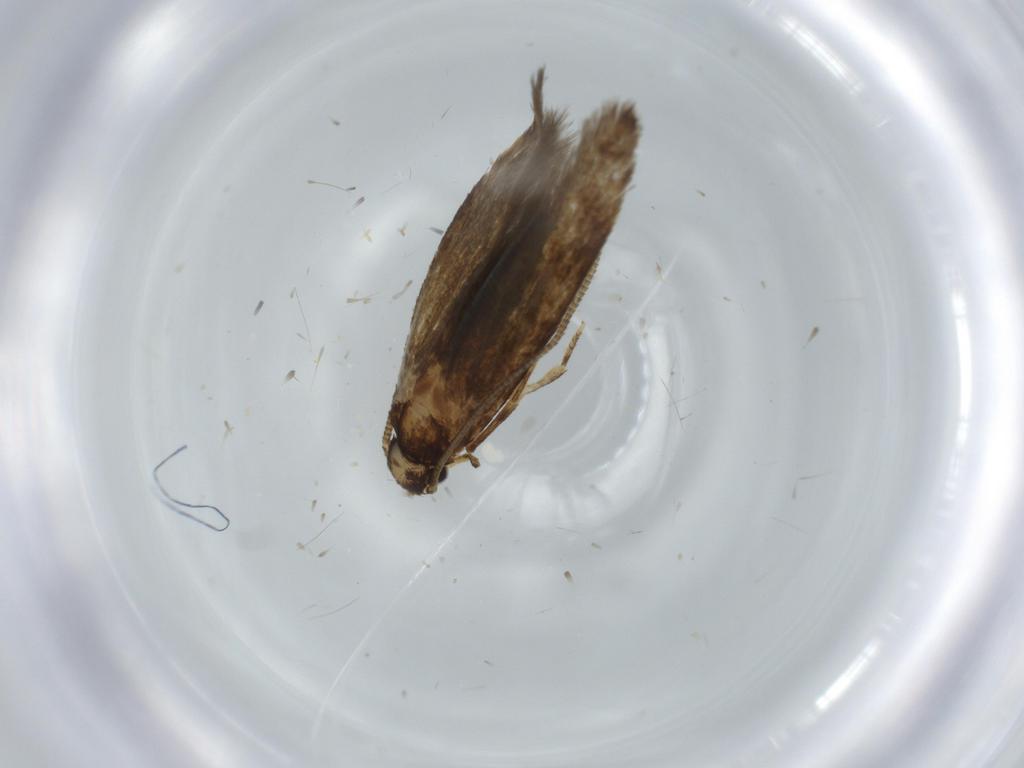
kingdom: Animalia
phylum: Arthropoda
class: Insecta
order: Lepidoptera
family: Tineidae
